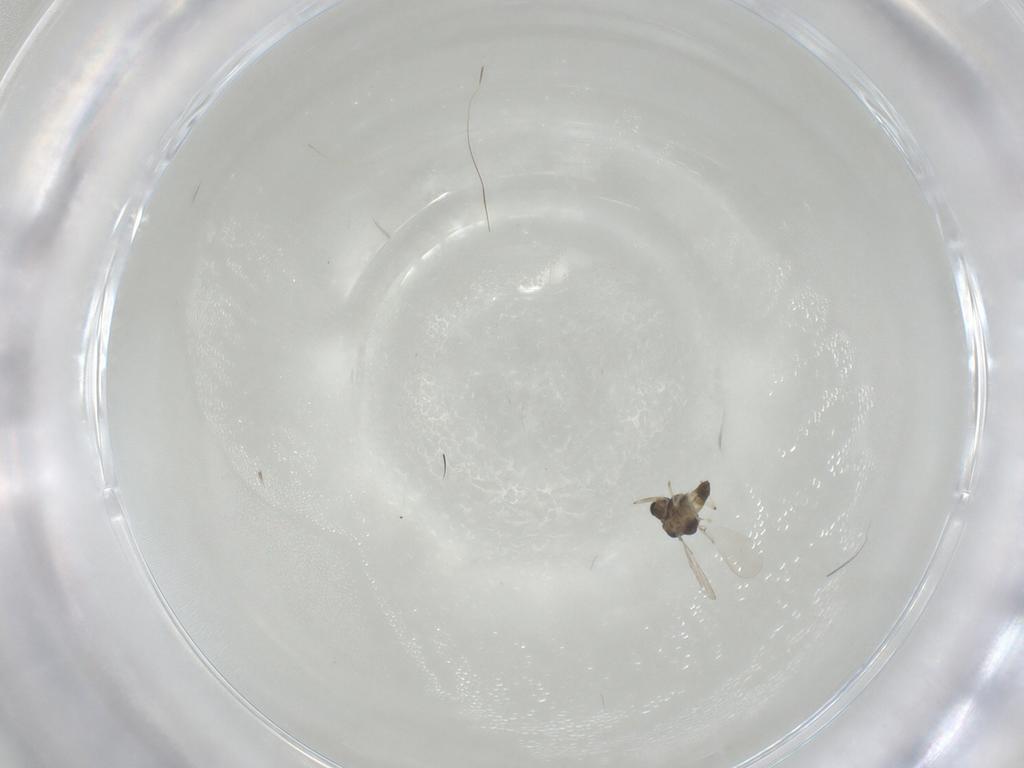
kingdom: Animalia
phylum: Arthropoda
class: Insecta
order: Diptera
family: Chironomidae
